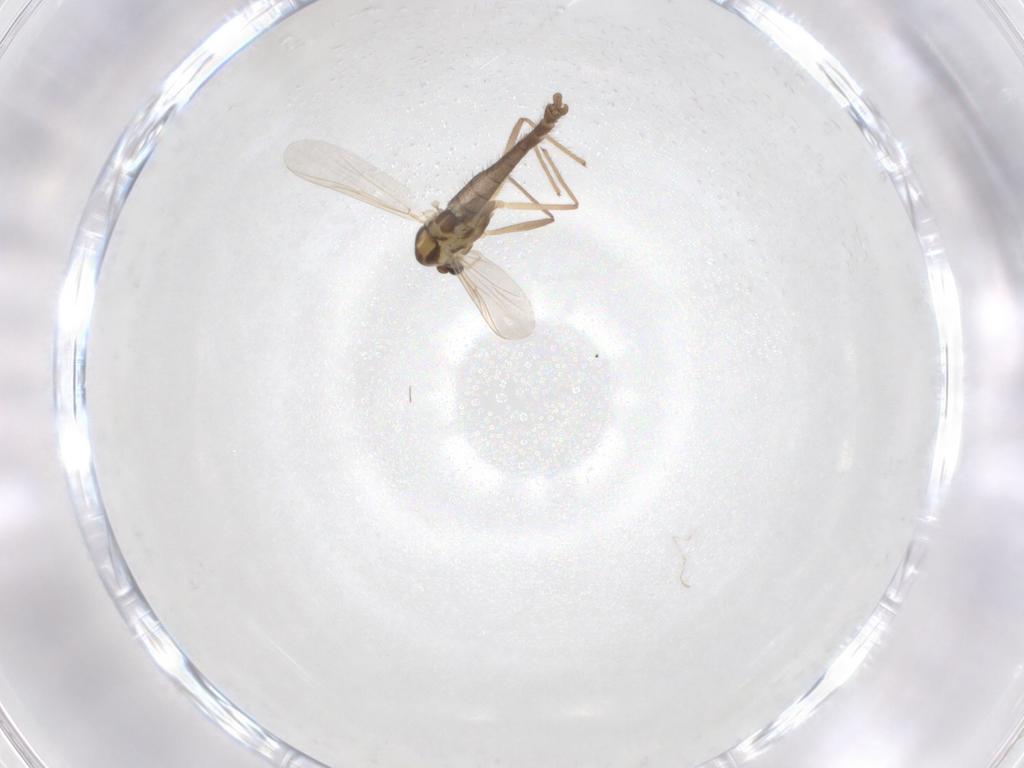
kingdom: Animalia
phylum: Arthropoda
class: Insecta
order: Diptera
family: Chironomidae
